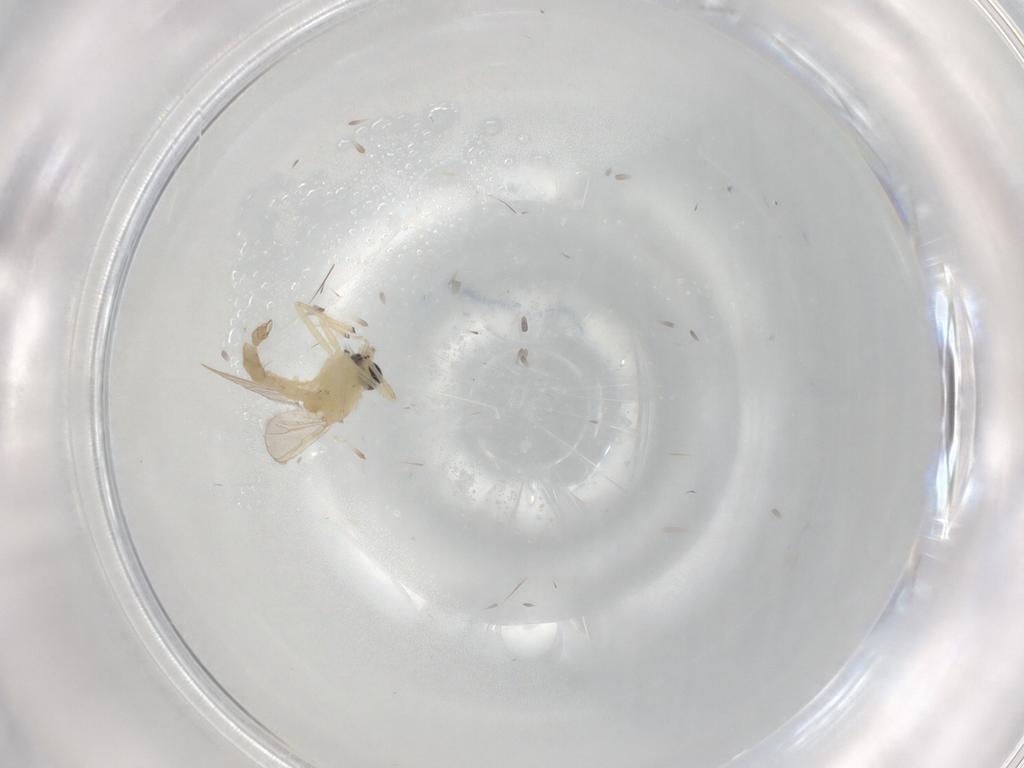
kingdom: Animalia
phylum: Arthropoda
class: Insecta
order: Diptera
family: Chironomidae
